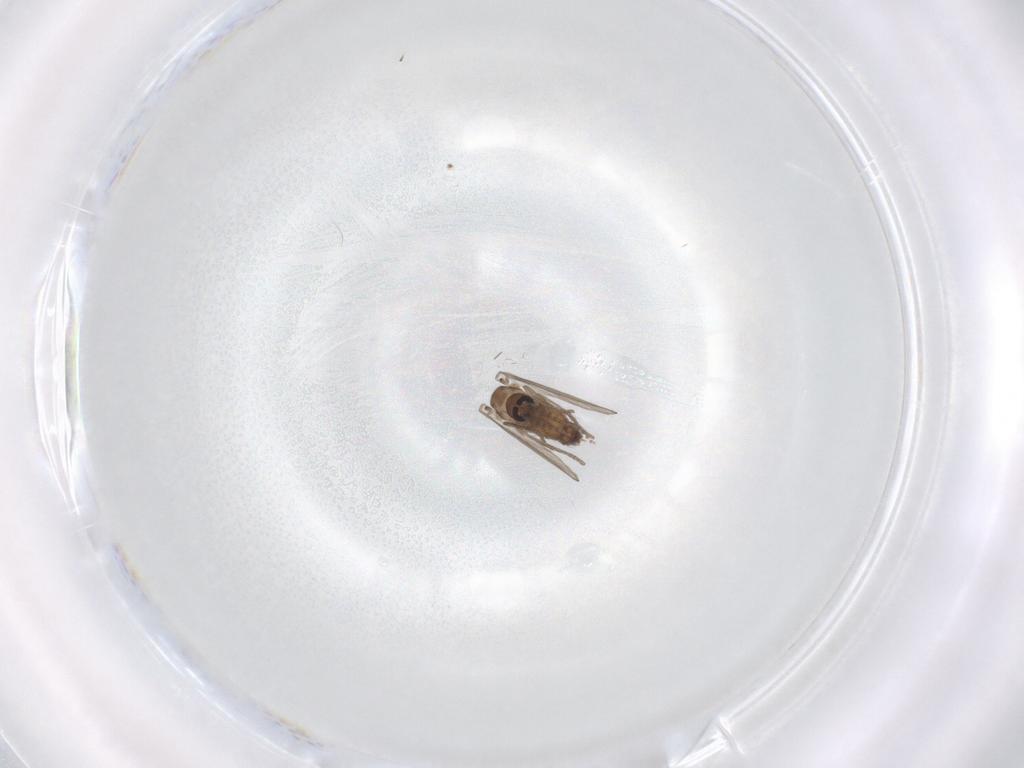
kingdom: Animalia
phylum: Arthropoda
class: Insecta
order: Diptera
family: Psychodidae
